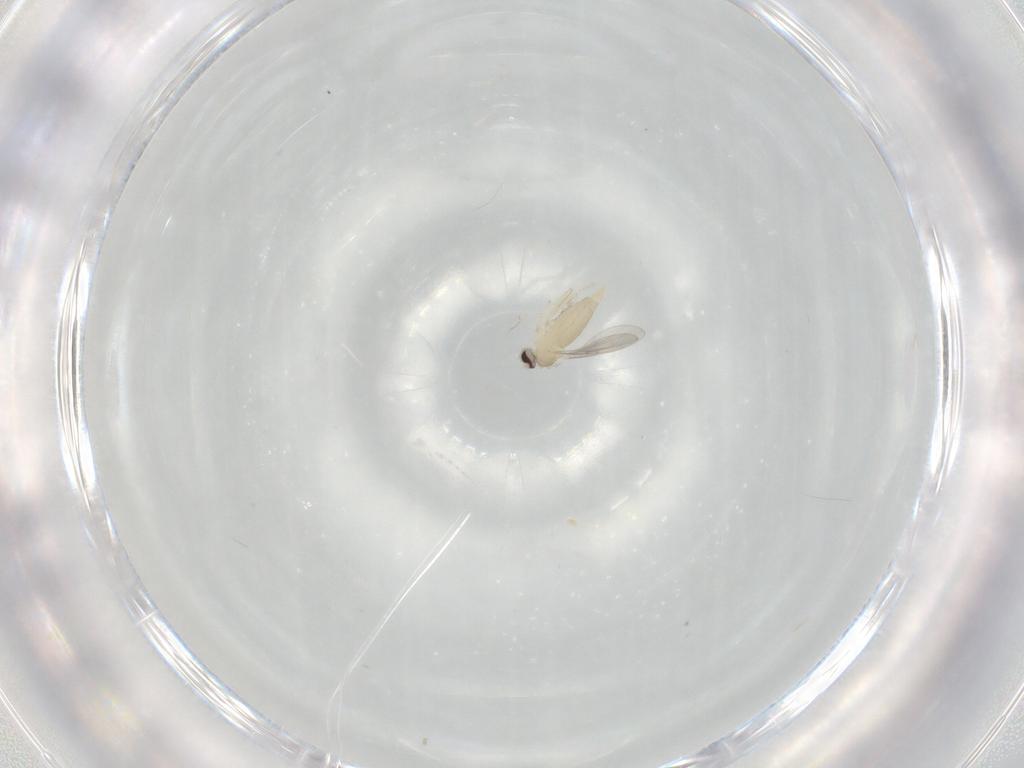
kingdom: Animalia
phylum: Arthropoda
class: Insecta
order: Diptera
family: Cecidomyiidae
